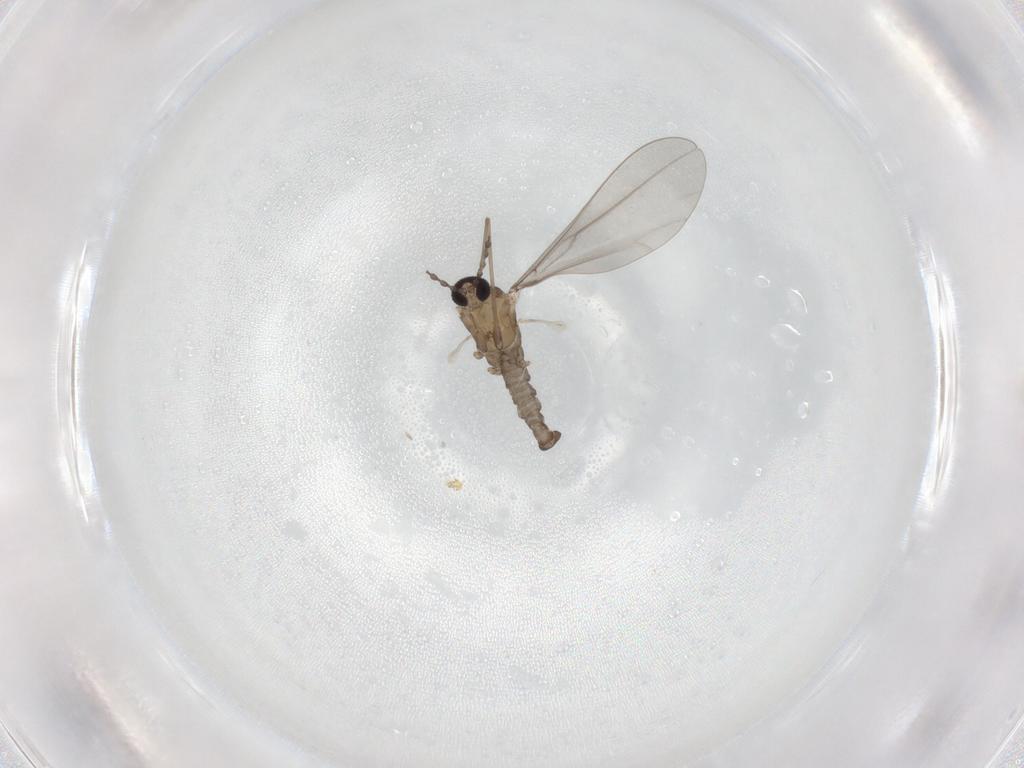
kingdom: Animalia
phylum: Arthropoda
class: Insecta
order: Diptera
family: Cecidomyiidae
